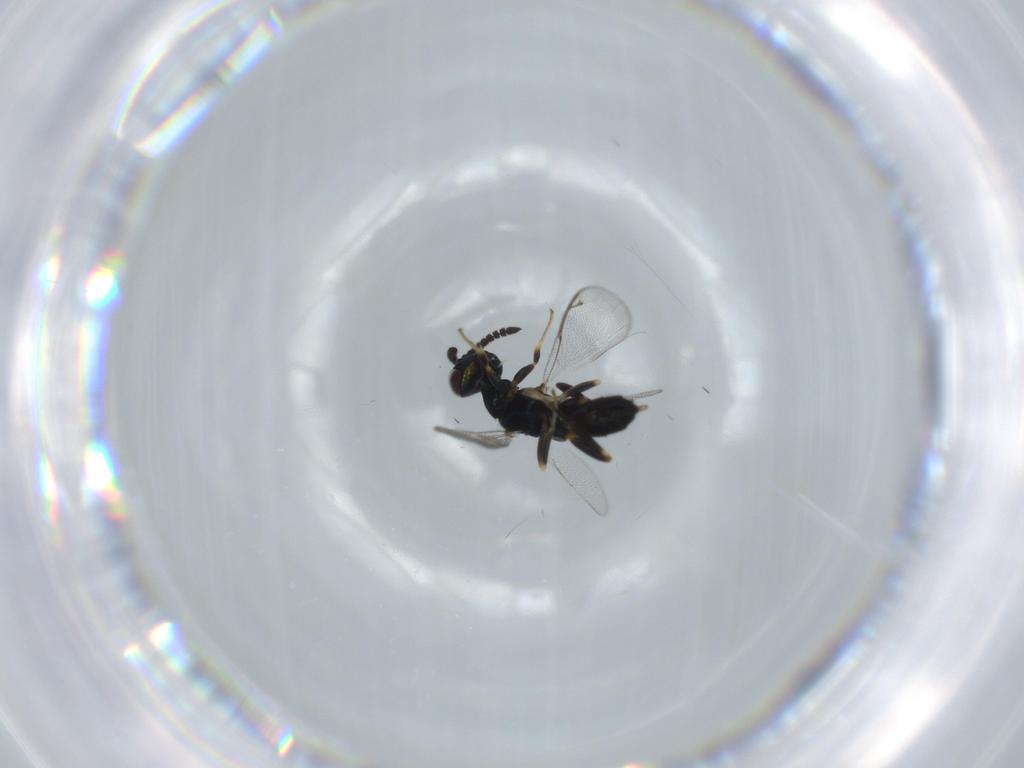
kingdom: Animalia
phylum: Arthropoda
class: Insecta
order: Hymenoptera
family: Cleonyminae
